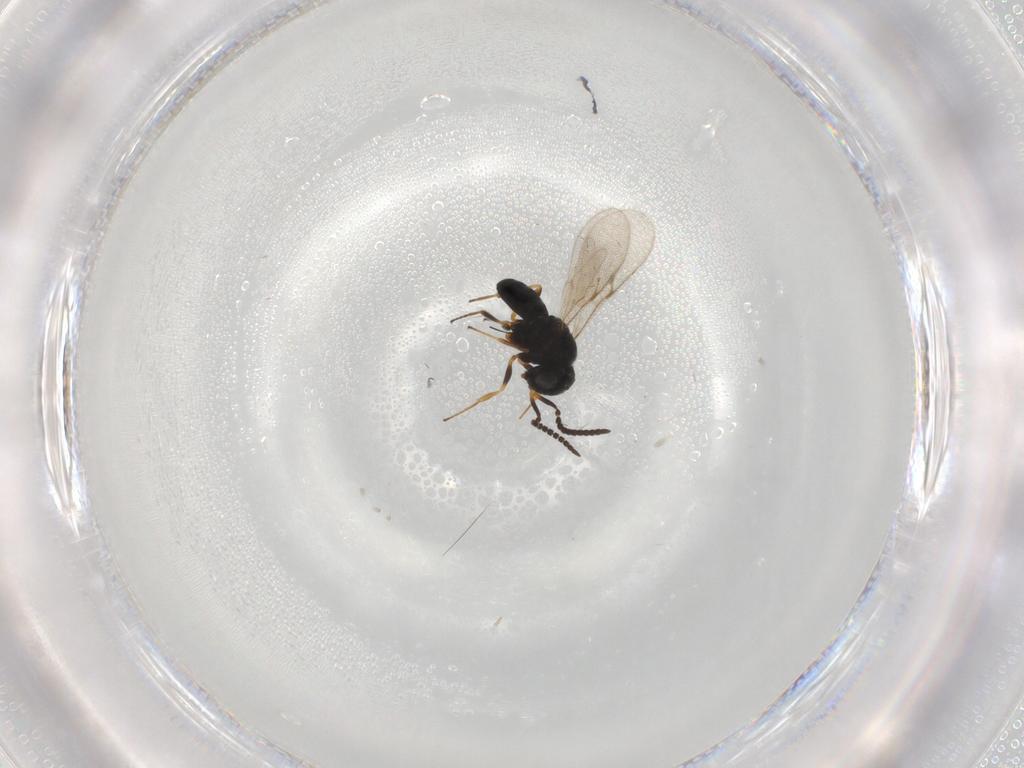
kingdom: Animalia
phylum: Arthropoda
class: Insecta
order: Hymenoptera
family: Scelionidae
